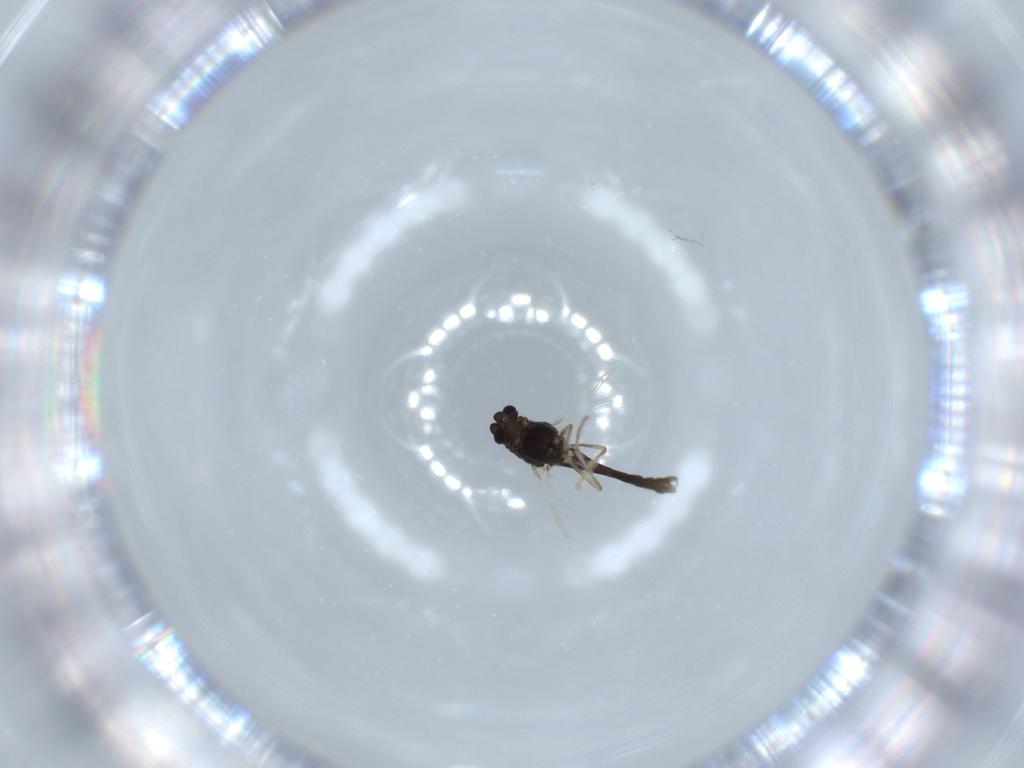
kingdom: Animalia
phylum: Arthropoda
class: Insecta
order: Diptera
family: Chironomidae
